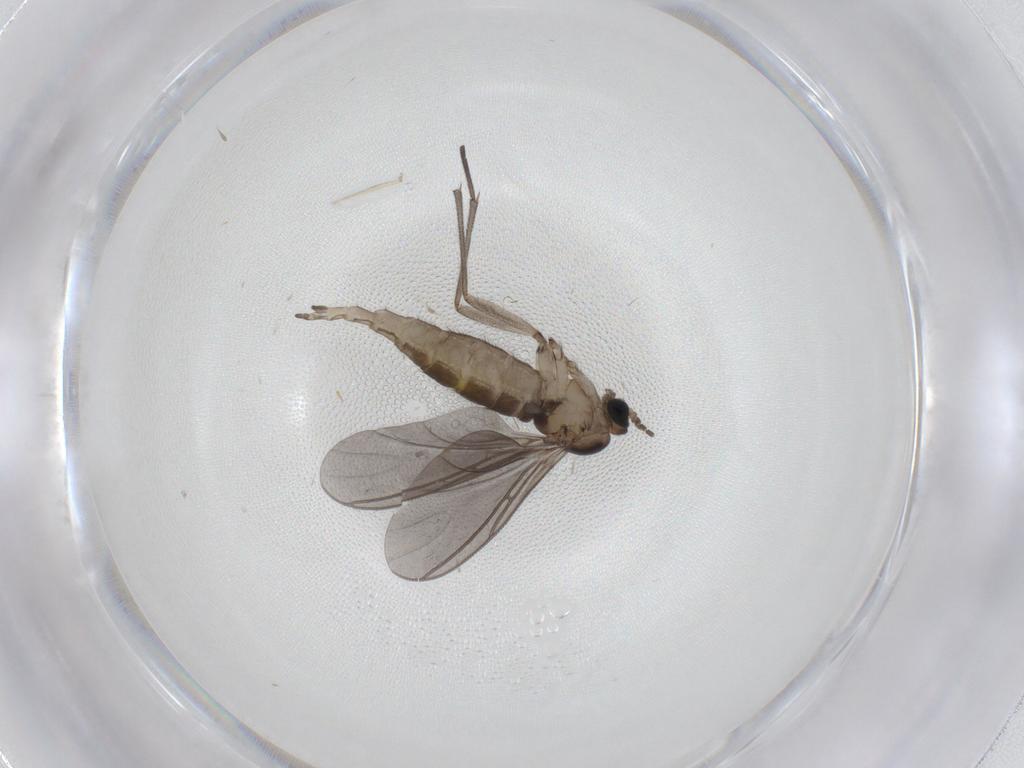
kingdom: Animalia
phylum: Arthropoda
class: Insecta
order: Diptera
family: Sciaridae
